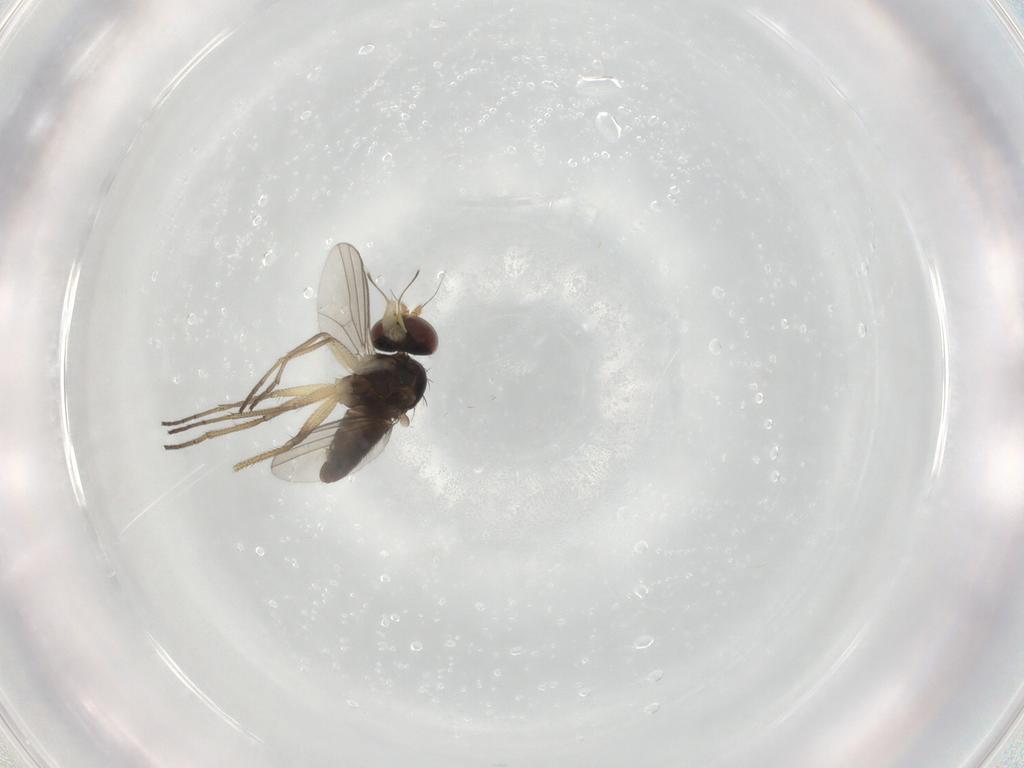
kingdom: Animalia
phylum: Arthropoda
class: Insecta
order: Diptera
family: Dolichopodidae
